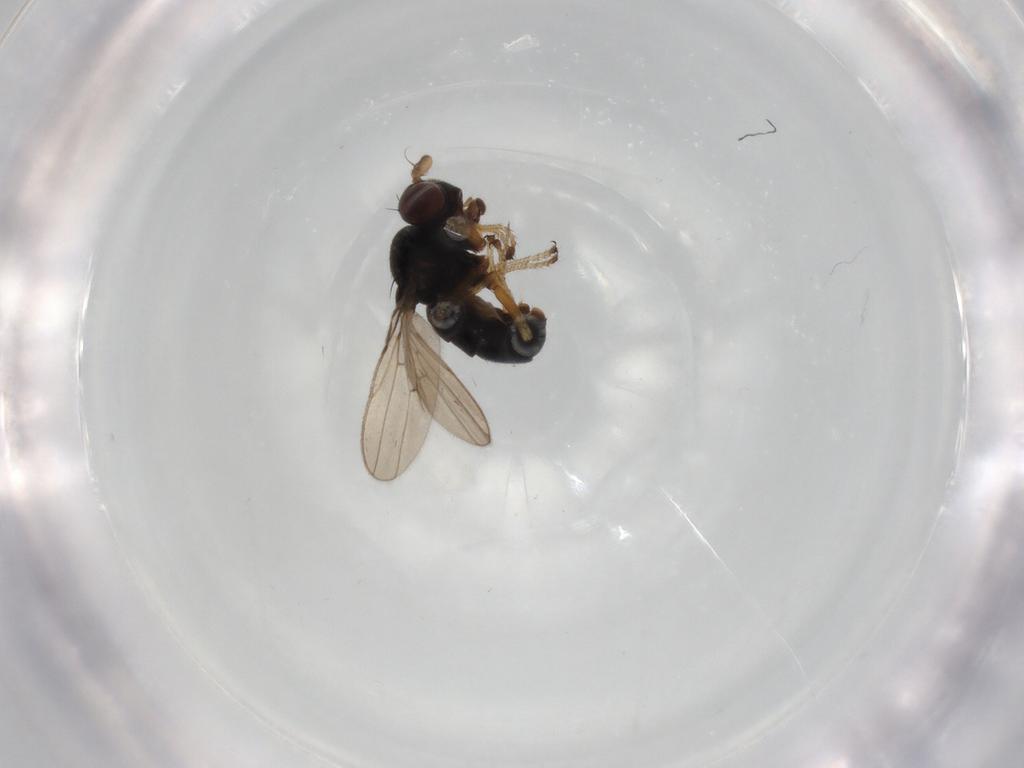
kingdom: Animalia
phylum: Arthropoda
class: Insecta
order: Diptera
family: Ephydridae
